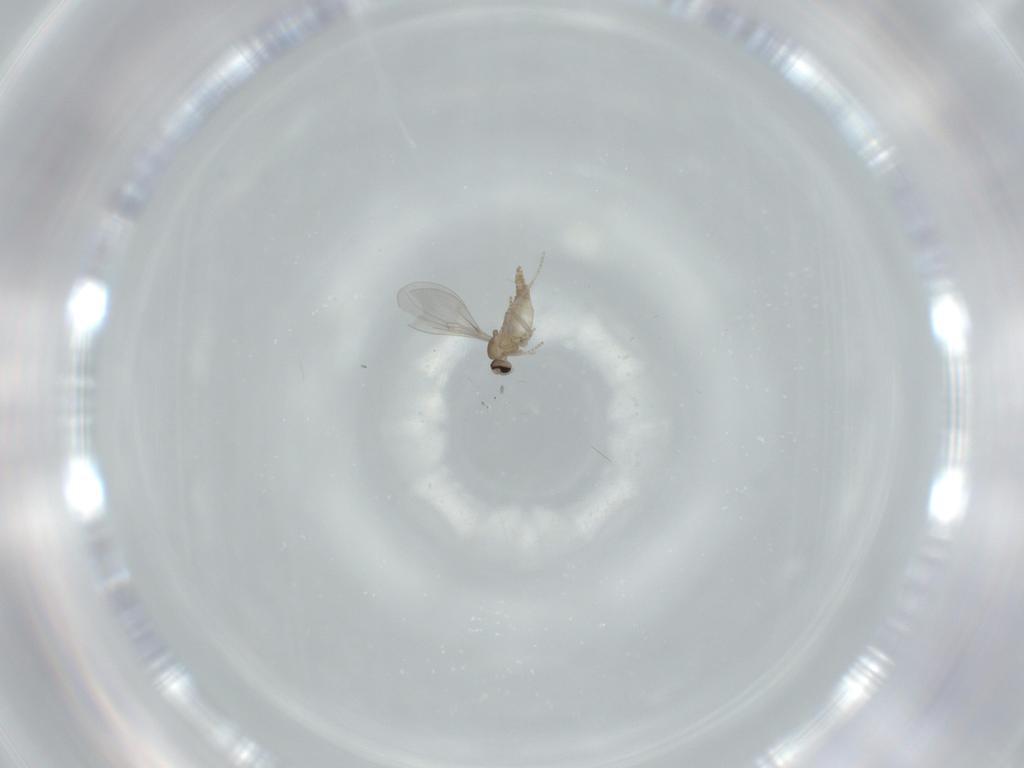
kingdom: Animalia
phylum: Arthropoda
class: Insecta
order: Diptera
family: Cecidomyiidae
